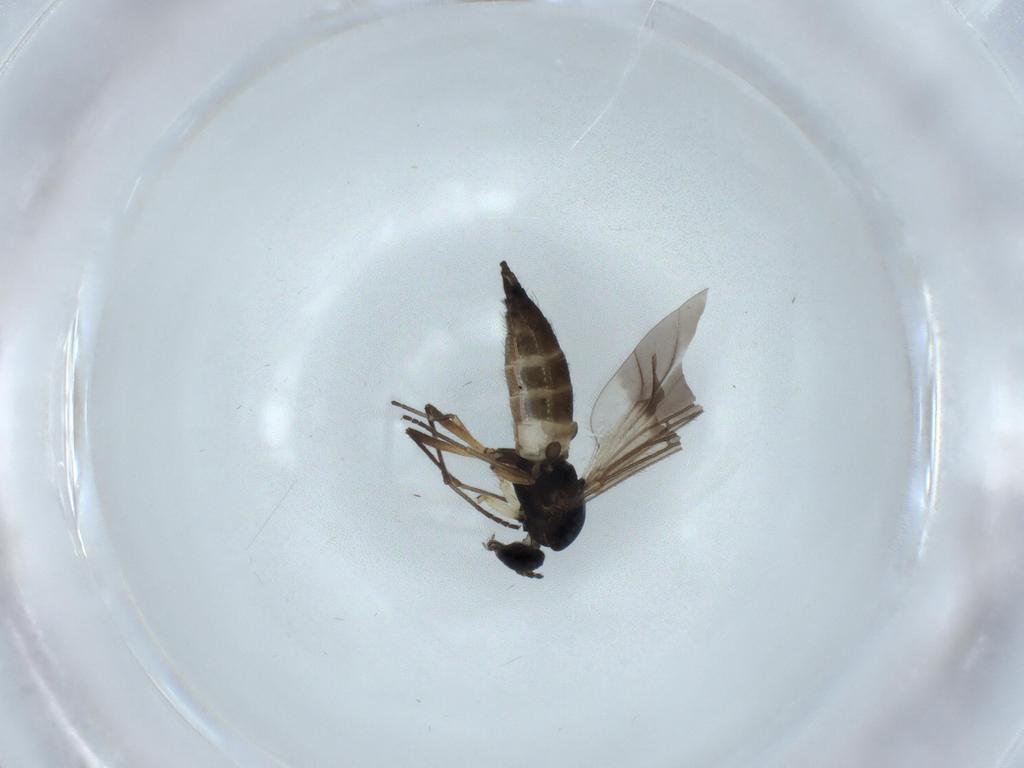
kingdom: Animalia
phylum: Arthropoda
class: Insecta
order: Diptera
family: Sciaridae
